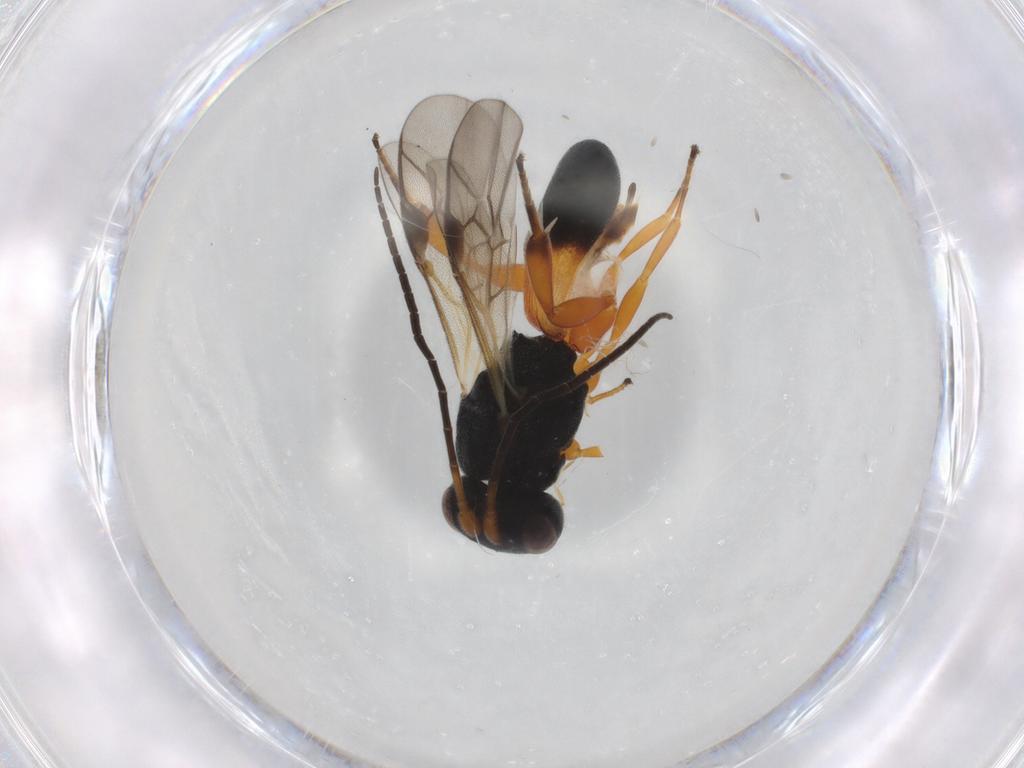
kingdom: Animalia
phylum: Arthropoda
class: Insecta
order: Hymenoptera
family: Braconidae
